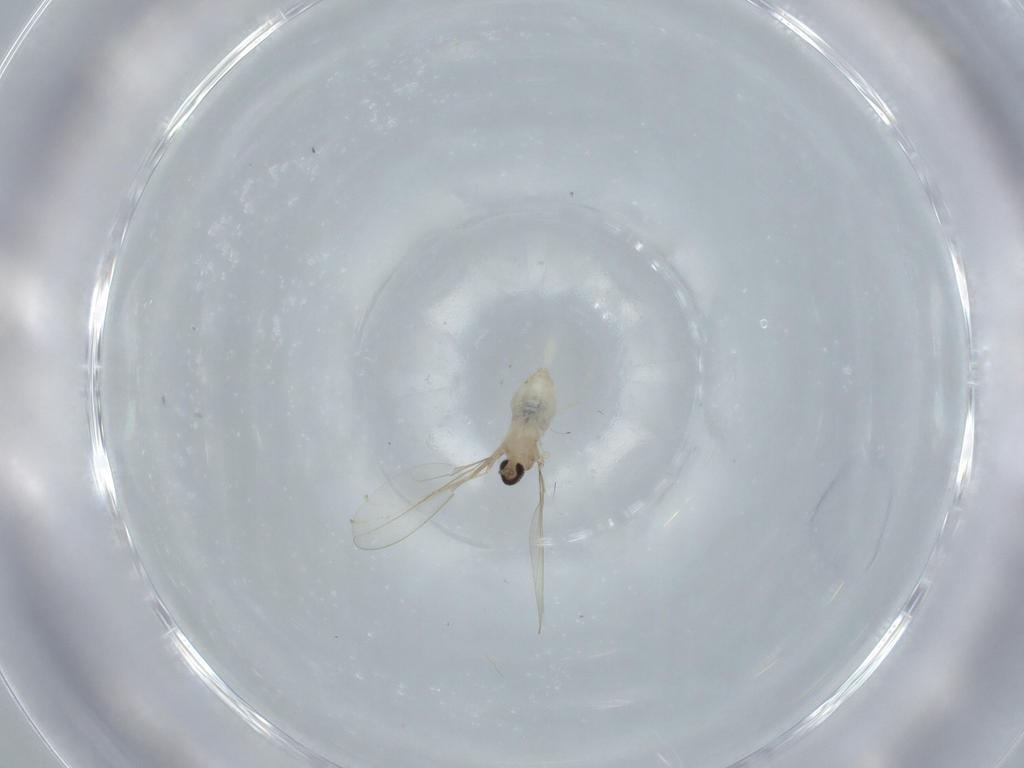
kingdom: Animalia
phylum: Arthropoda
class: Insecta
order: Diptera
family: Cecidomyiidae
